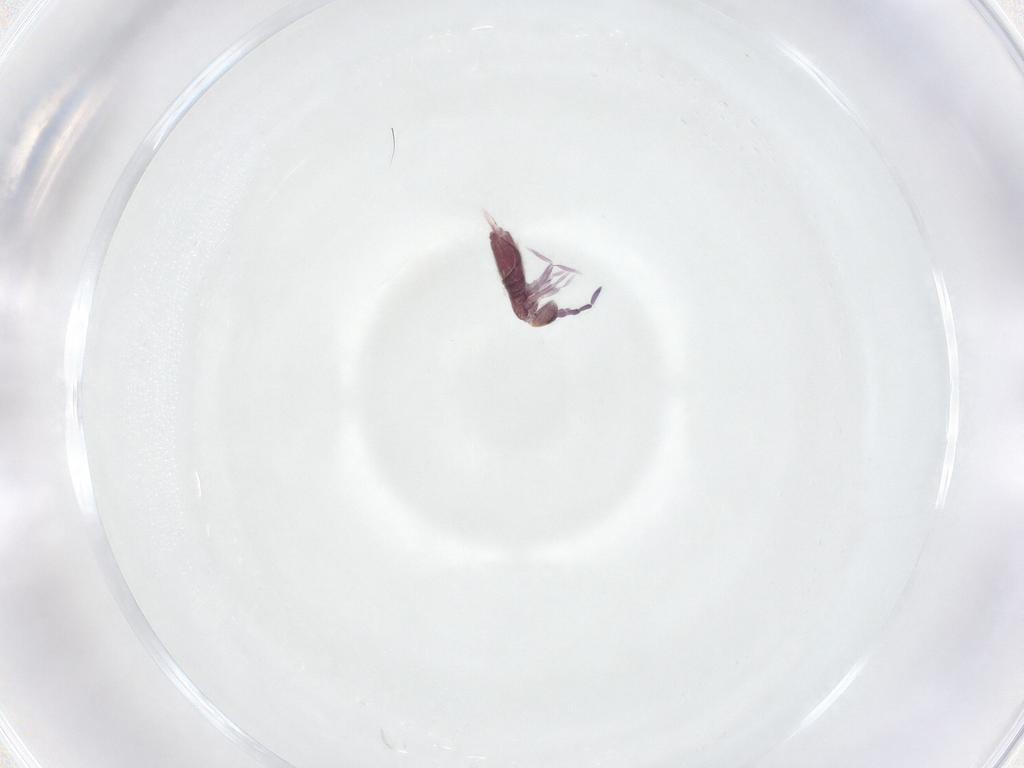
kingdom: Animalia
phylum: Arthropoda
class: Collembola
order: Entomobryomorpha
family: Entomobryidae
